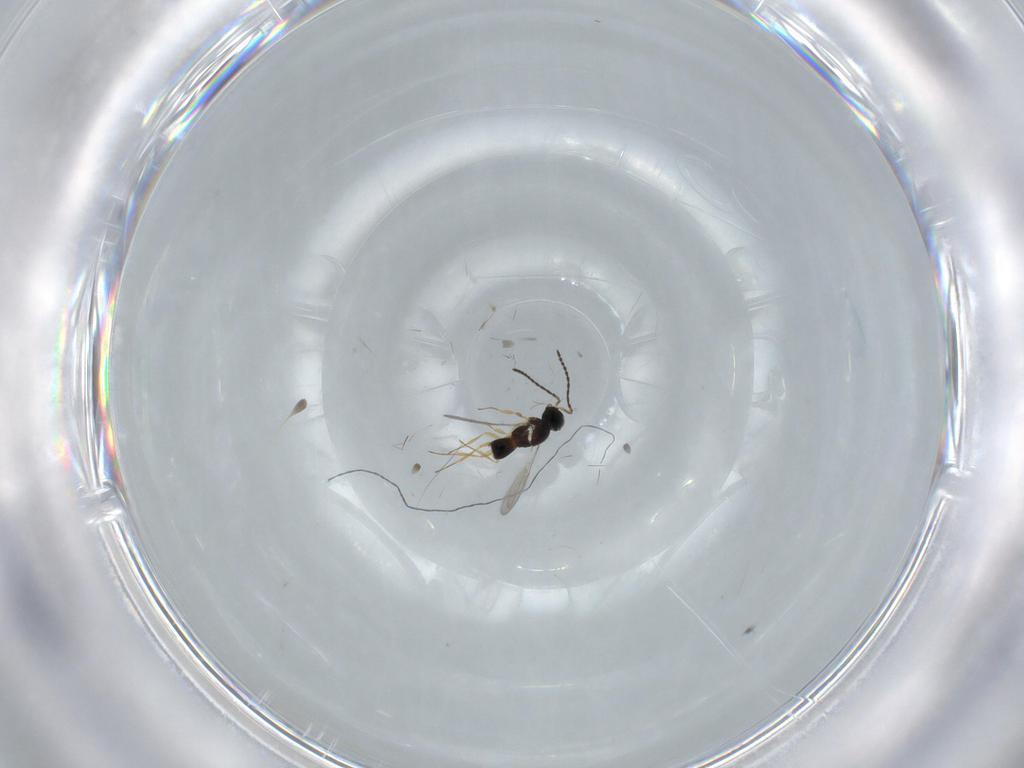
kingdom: Animalia
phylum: Arthropoda
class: Insecta
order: Hymenoptera
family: Scelionidae
